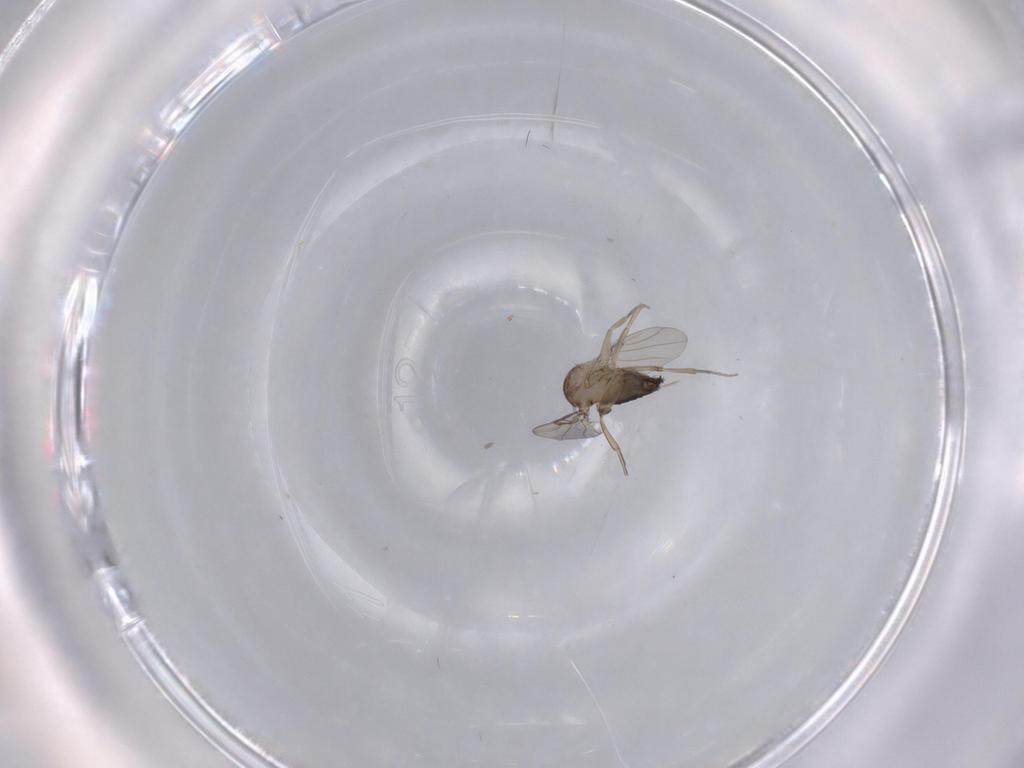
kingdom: Animalia
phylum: Arthropoda
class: Insecta
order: Diptera
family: Phoridae
